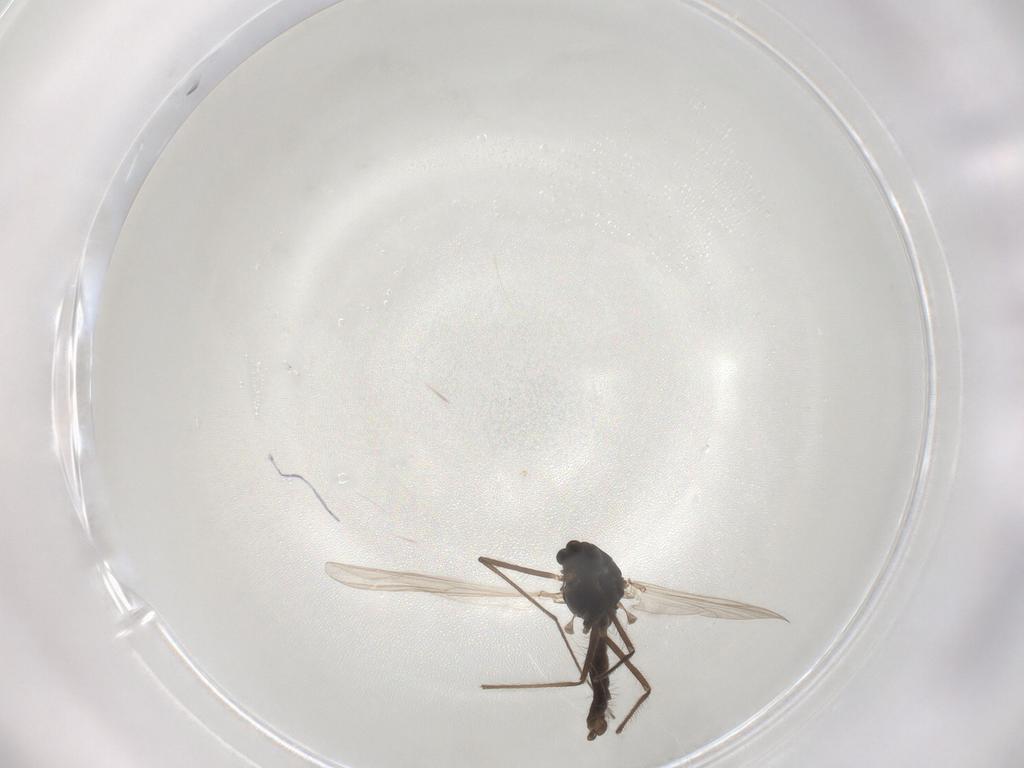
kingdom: Animalia
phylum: Arthropoda
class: Insecta
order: Diptera
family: Chironomidae
